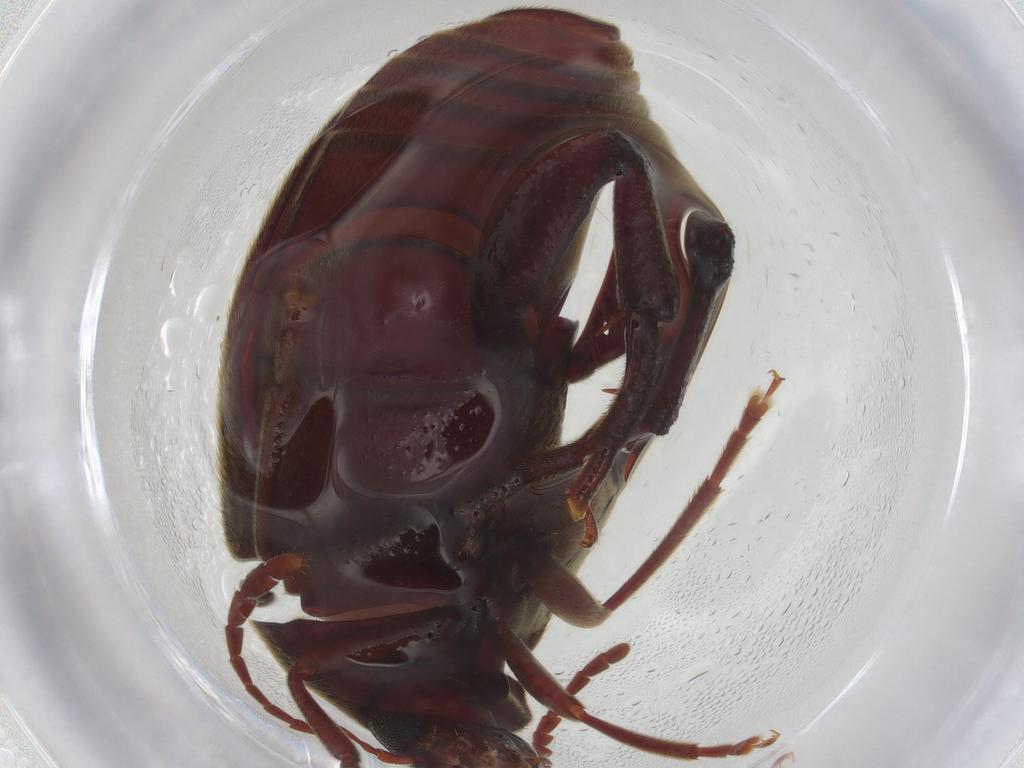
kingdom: Animalia
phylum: Arthropoda
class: Insecta
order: Coleoptera
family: Chrysomelidae
